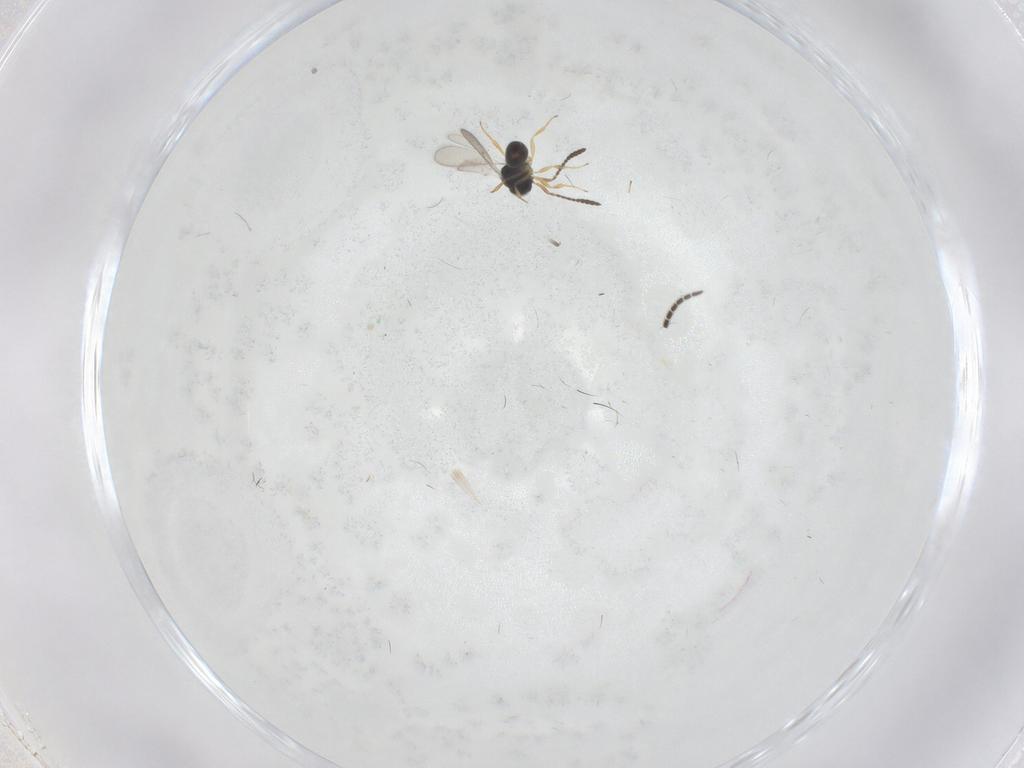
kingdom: Animalia
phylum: Arthropoda
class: Insecta
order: Diptera
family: Sciaridae
